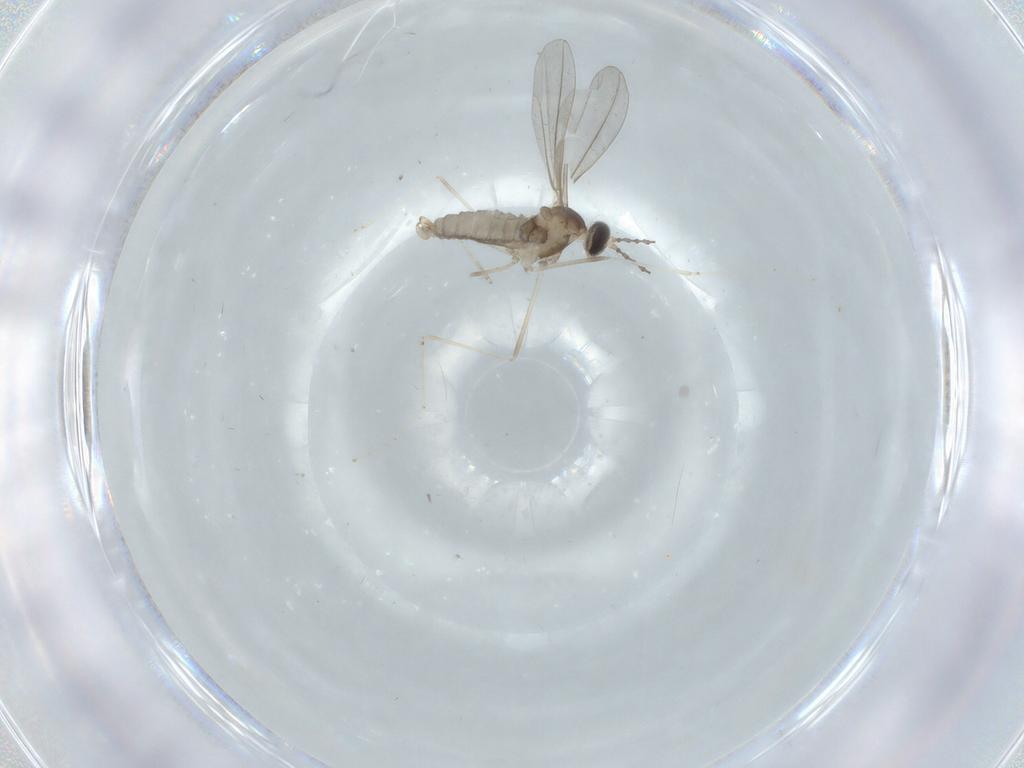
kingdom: Animalia
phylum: Arthropoda
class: Insecta
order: Diptera
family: Cecidomyiidae
